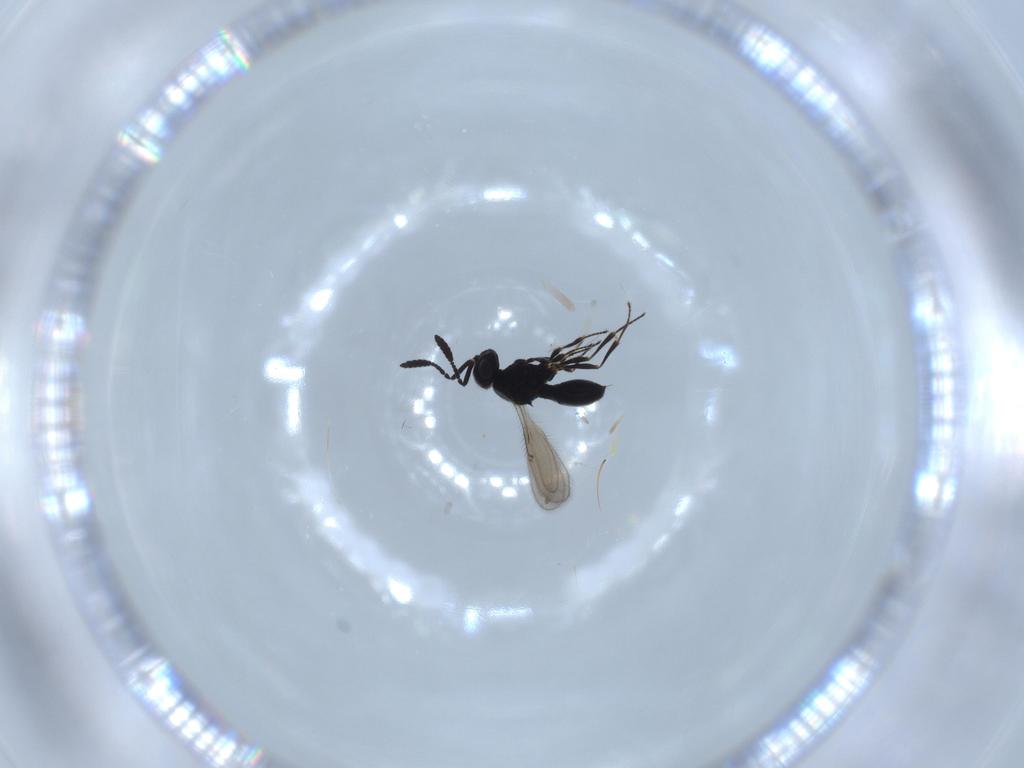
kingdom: Animalia
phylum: Arthropoda
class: Insecta
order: Hymenoptera
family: Scelionidae
